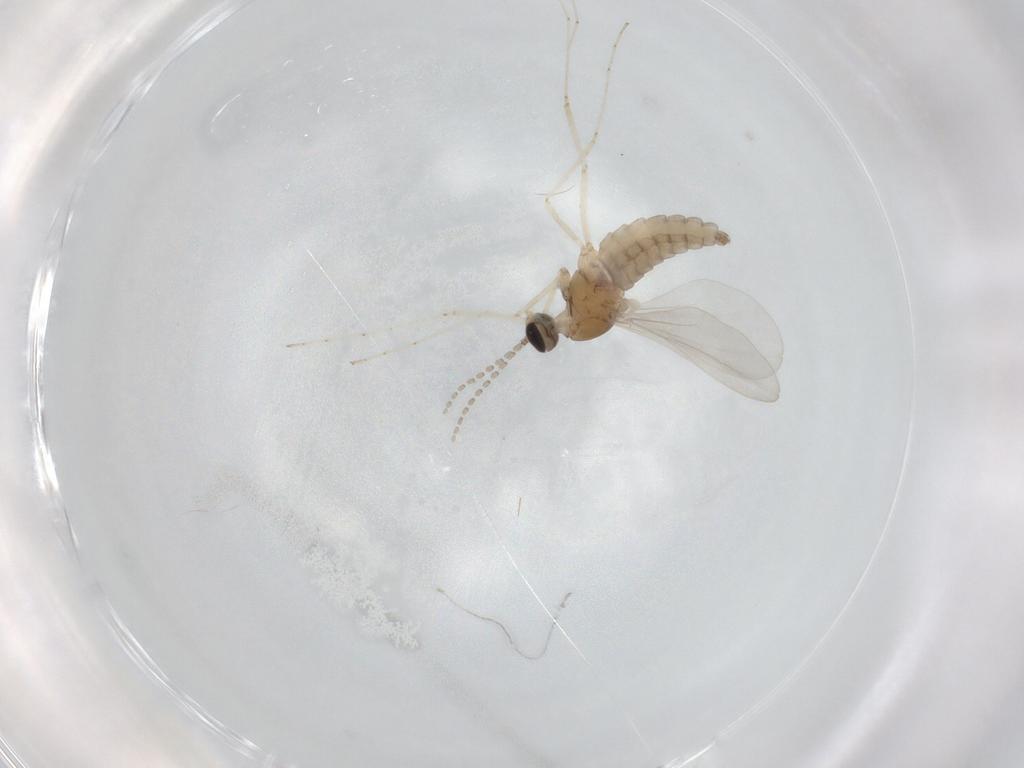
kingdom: Animalia
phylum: Arthropoda
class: Insecta
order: Diptera
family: Cecidomyiidae
